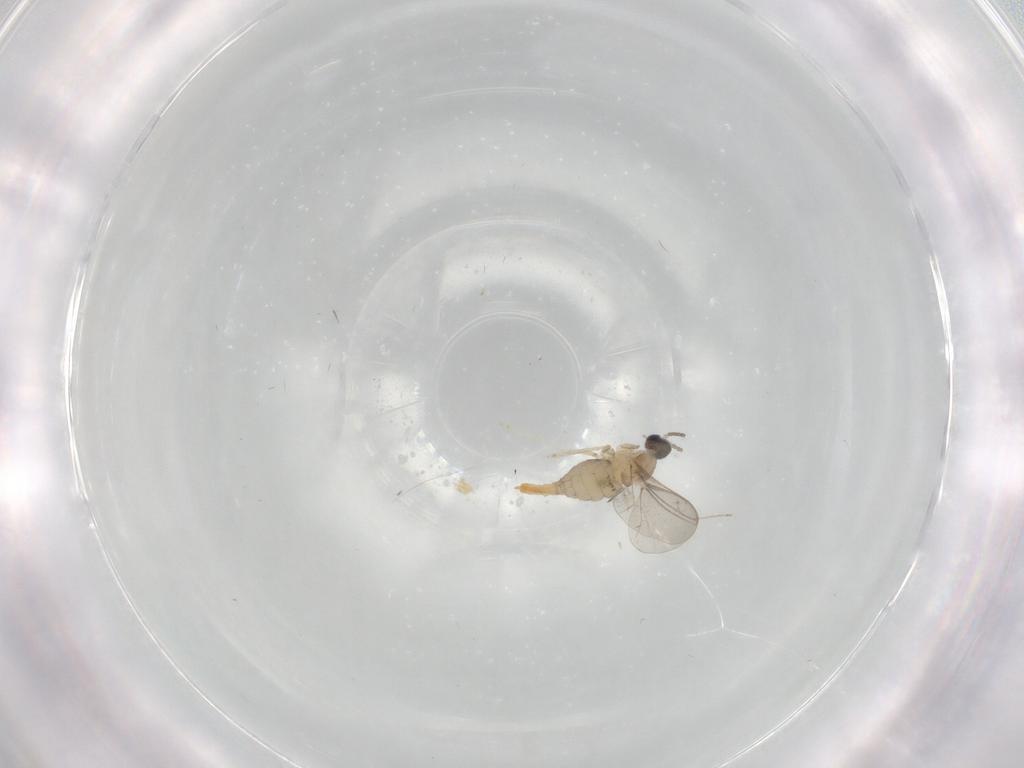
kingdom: Animalia
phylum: Arthropoda
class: Insecta
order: Diptera
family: Cecidomyiidae
